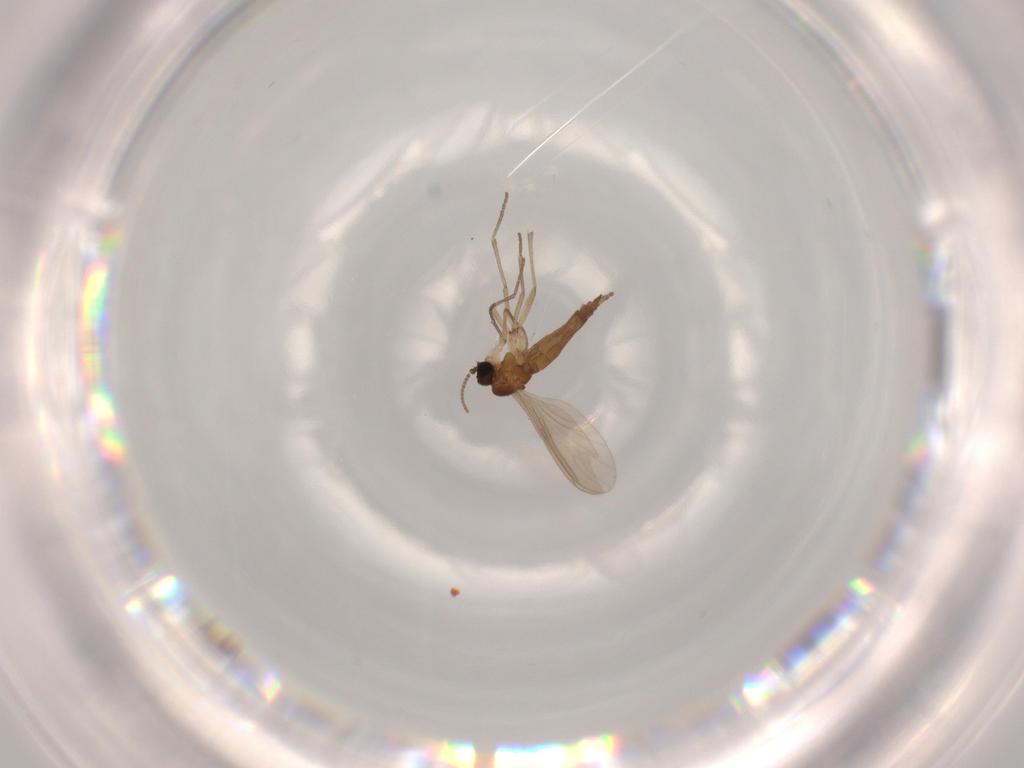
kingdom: Animalia
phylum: Arthropoda
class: Insecta
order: Diptera
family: Sciaridae
